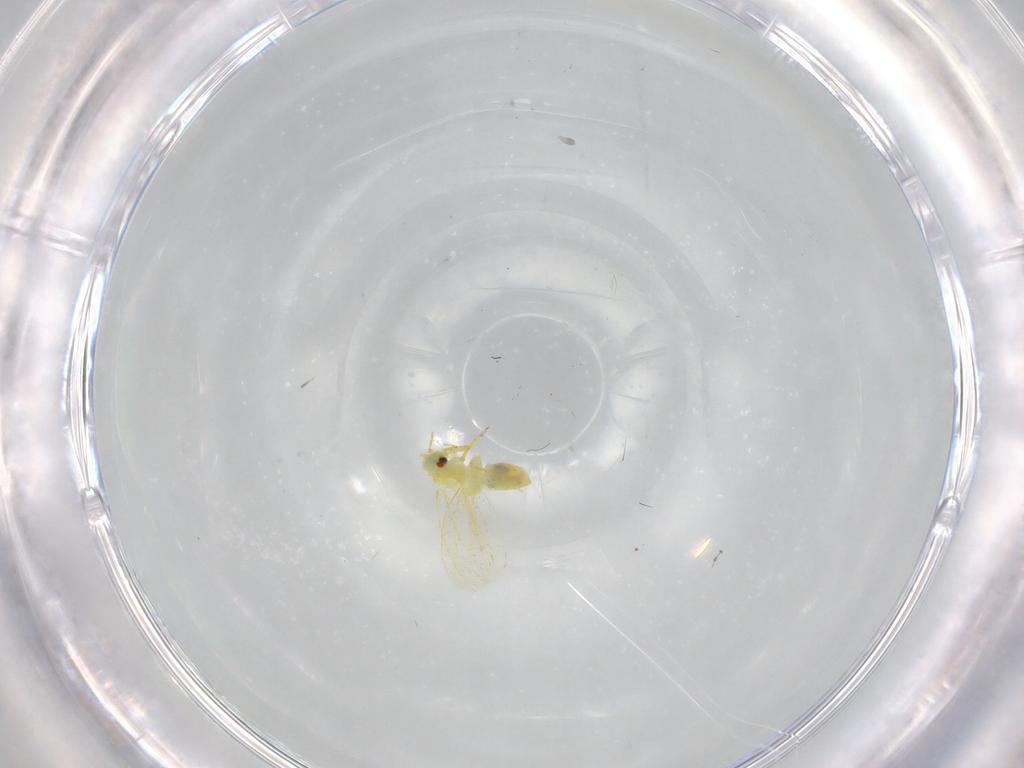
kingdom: Animalia
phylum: Arthropoda
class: Insecta
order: Hemiptera
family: Aleyrodidae
